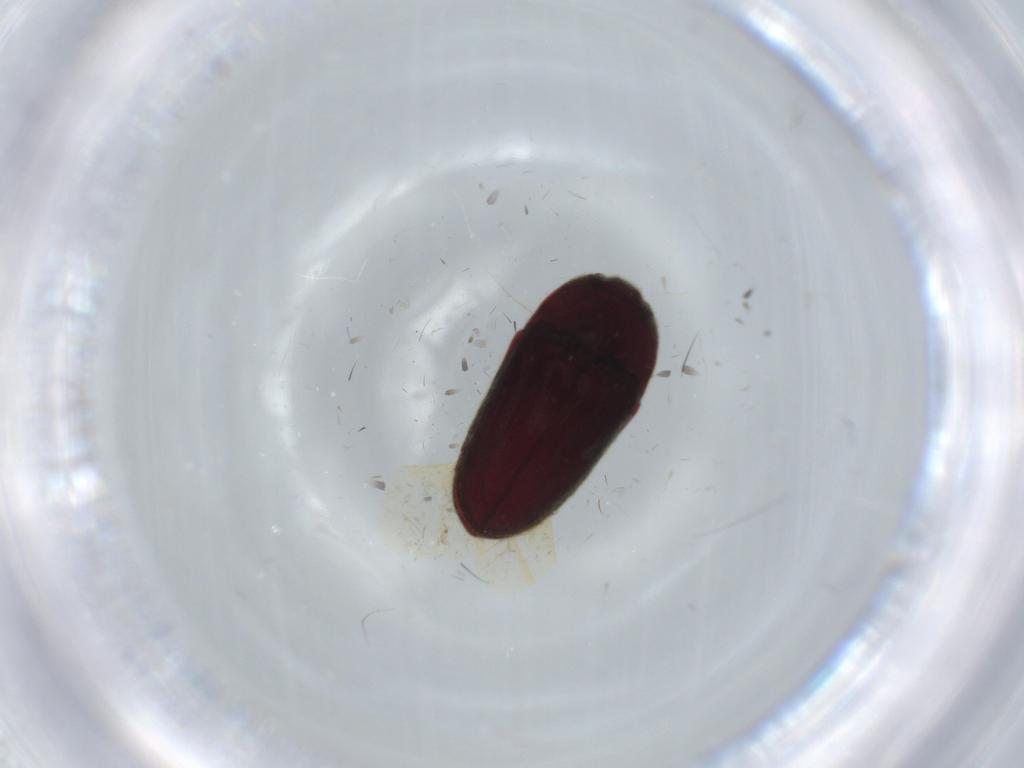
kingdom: Animalia
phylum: Arthropoda
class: Insecta
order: Coleoptera
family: Throscidae
